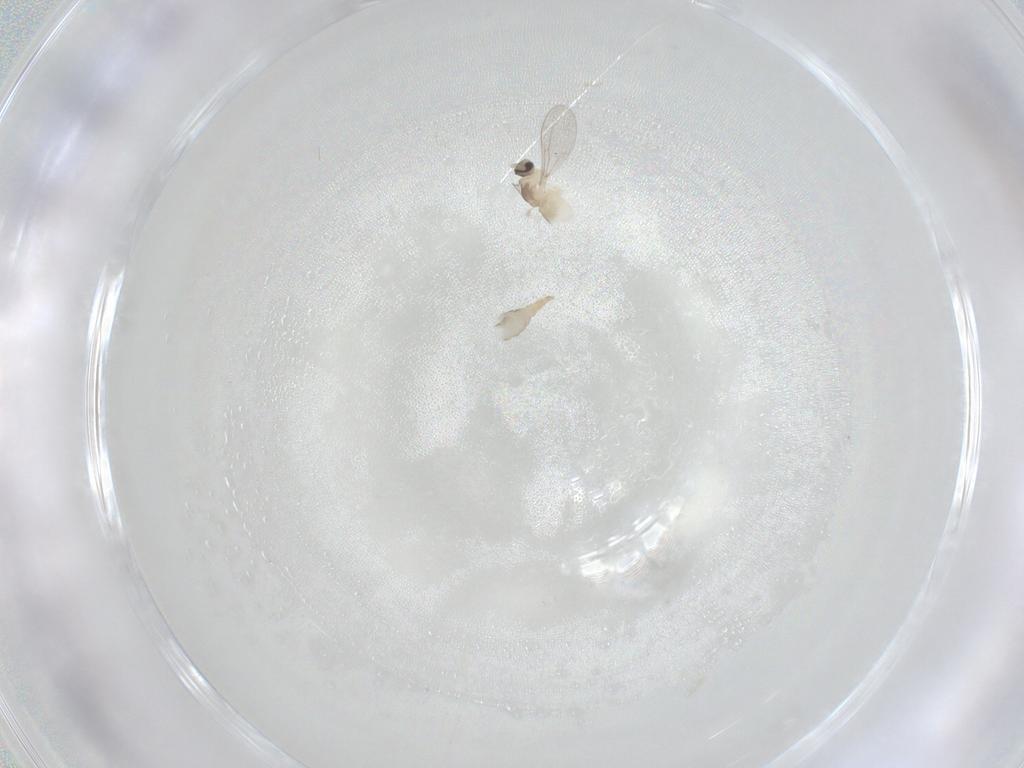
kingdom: Animalia
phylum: Arthropoda
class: Insecta
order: Diptera
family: Cecidomyiidae
